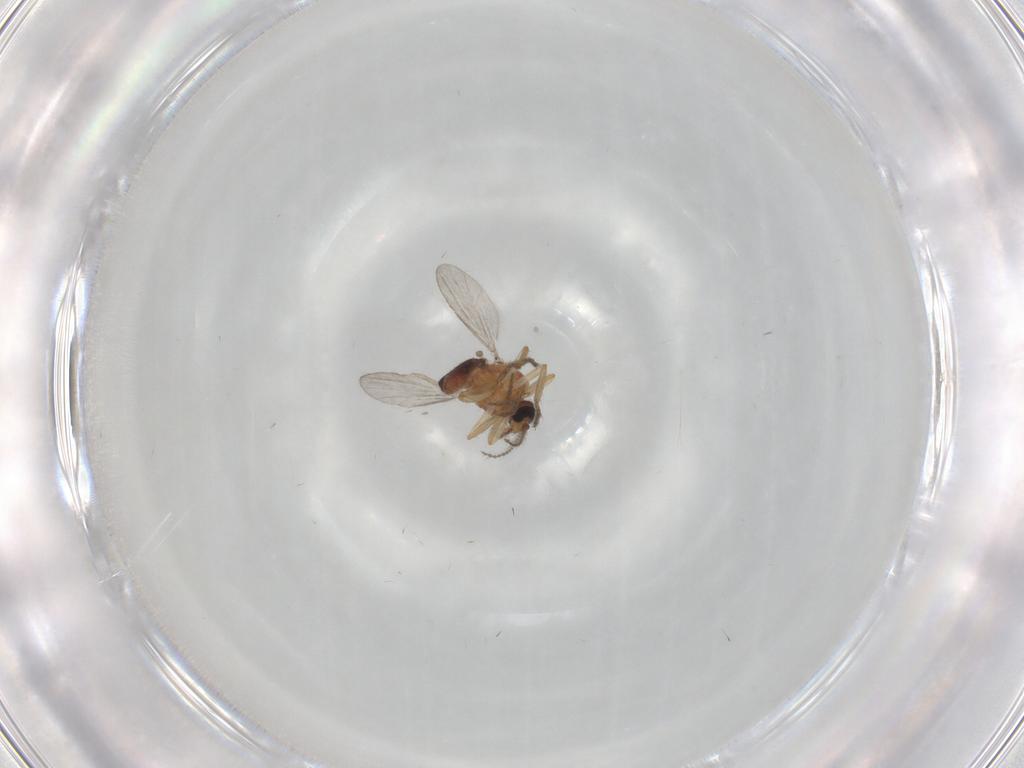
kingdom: Animalia
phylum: Arthropoda
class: Insecta
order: Diptera
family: Ceratopogonidae
